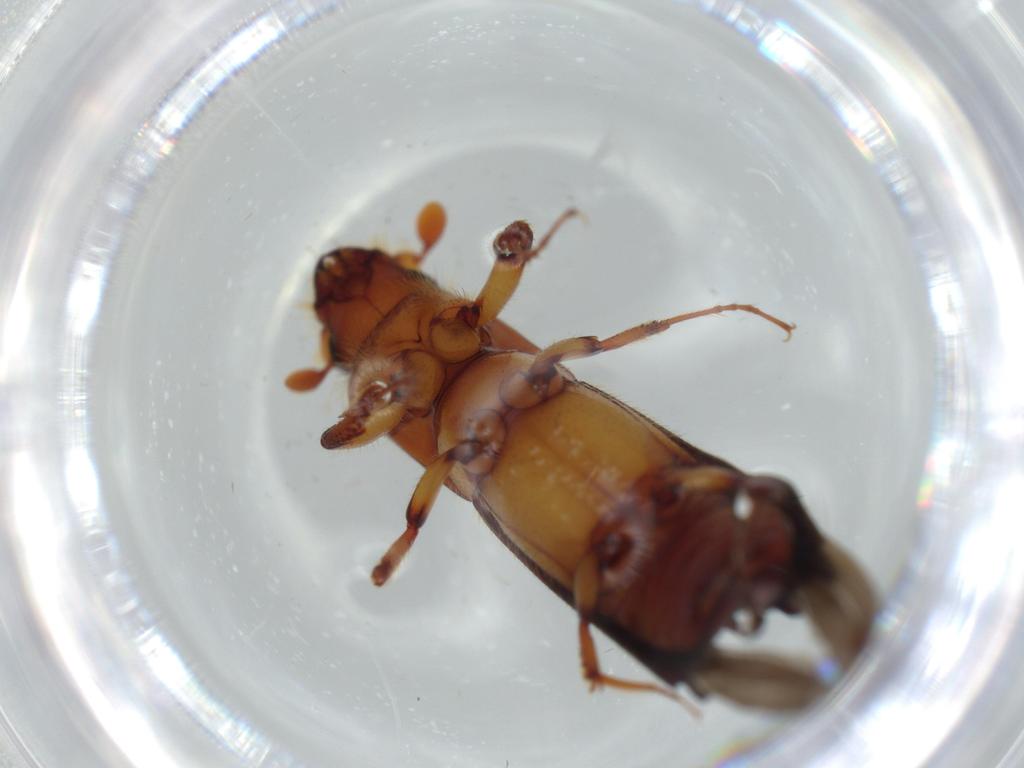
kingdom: Animalia
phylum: Arthropoda
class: Insecta
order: Coleoptera
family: Curculionidae
